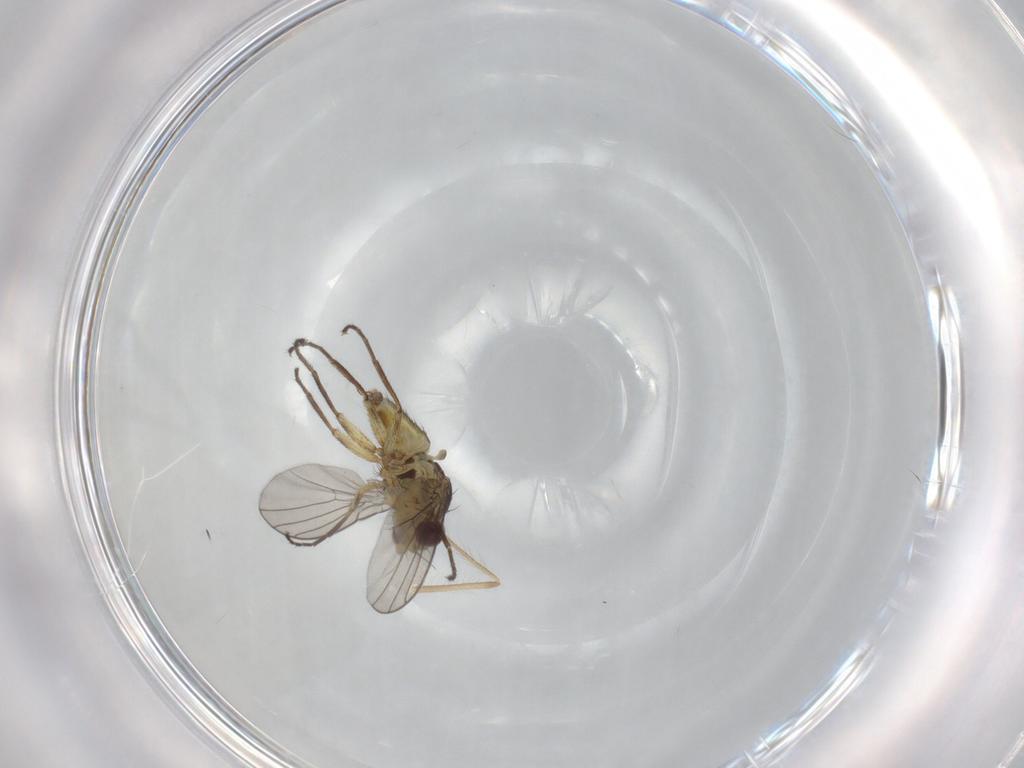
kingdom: Animalia
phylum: Arthropoda
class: Insecta
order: Diptera
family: Agromyzidae
